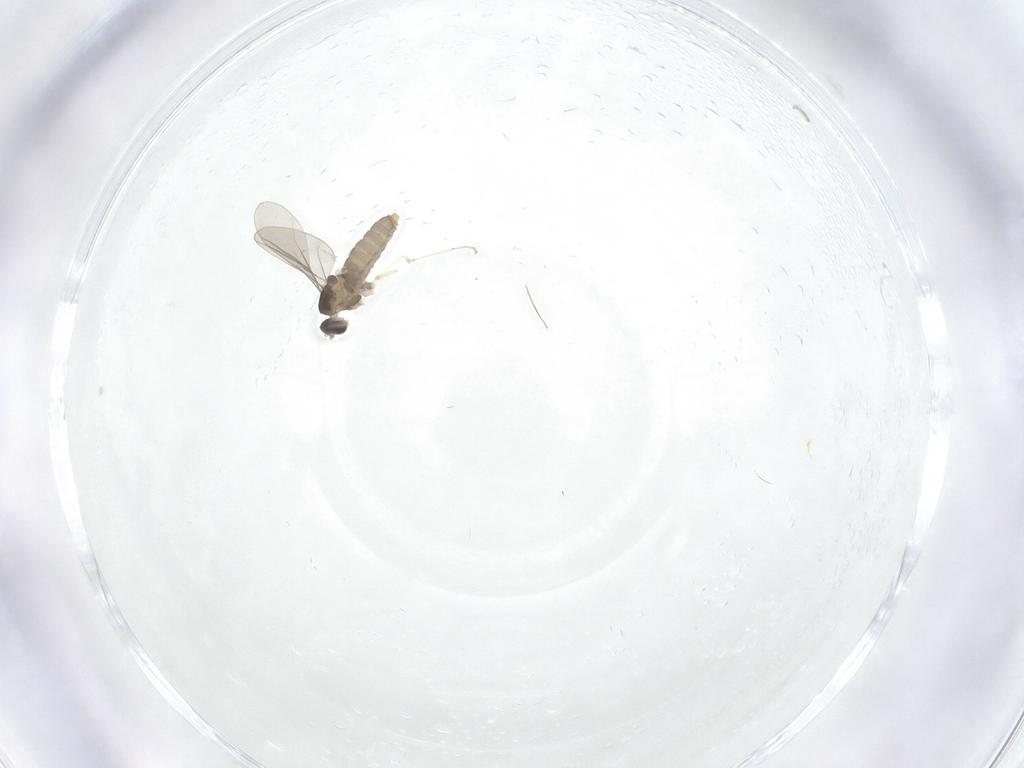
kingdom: Animalia
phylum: Arthropoda
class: Insecta
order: Diptera
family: Cecidomyiidae
